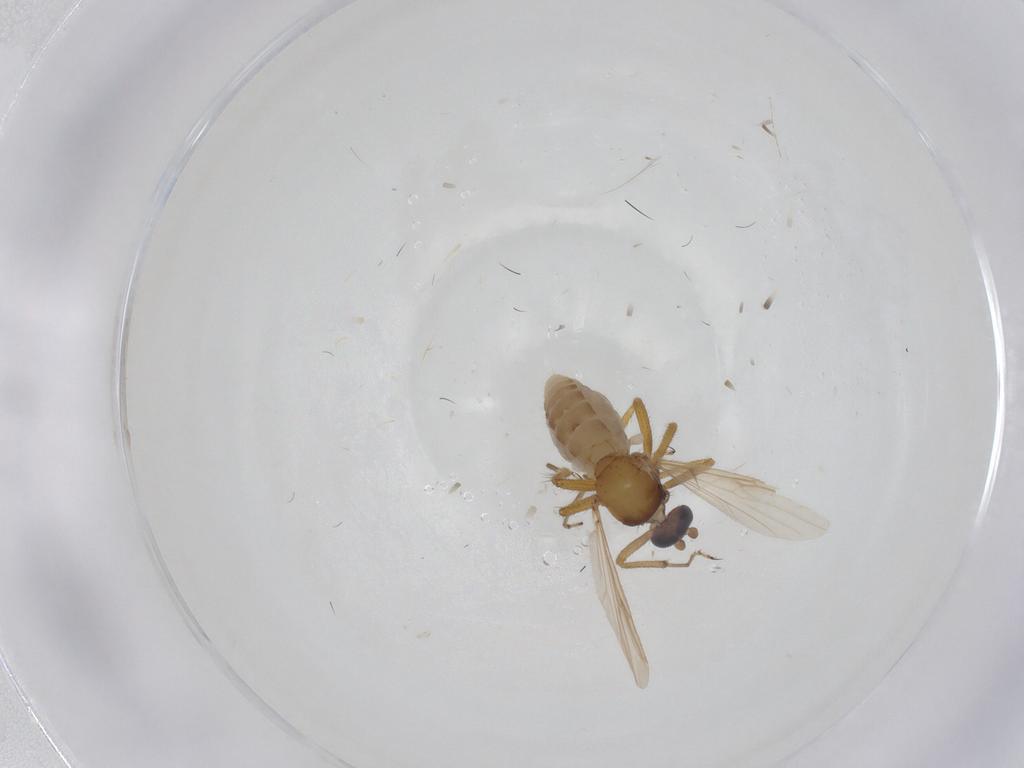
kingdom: Animalia
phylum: Arthropoda
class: Insecta
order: Diptera
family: Ceratopogonidae
